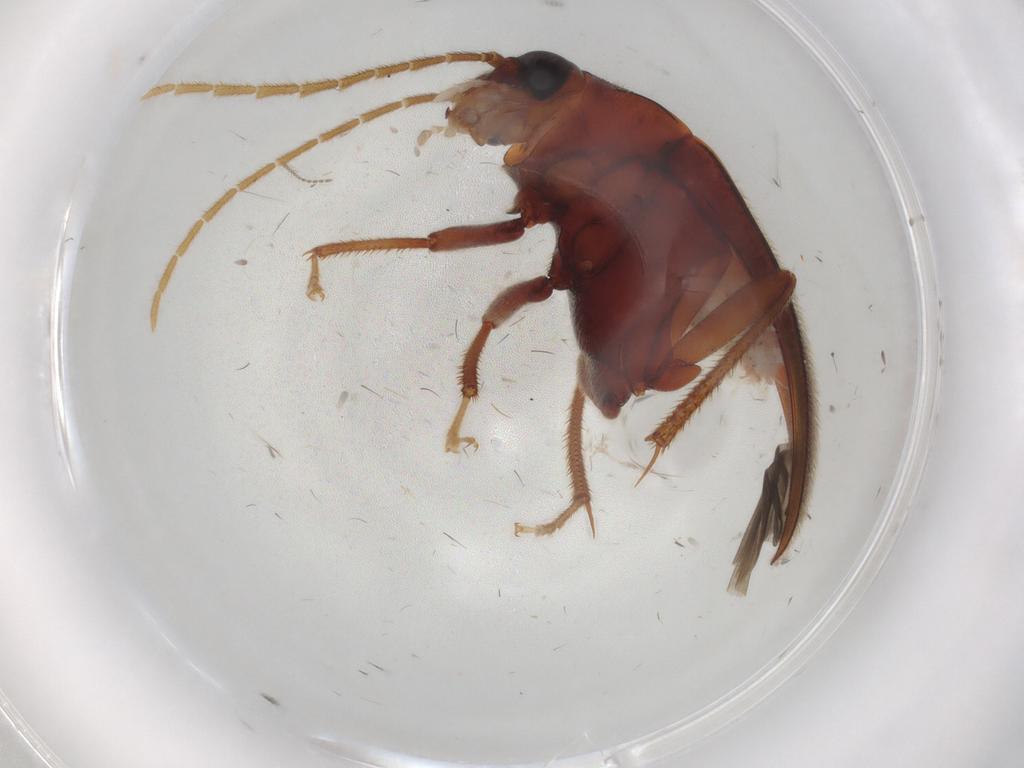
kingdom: Animalia
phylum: Arthropoda
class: Insecta
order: Coleoptera
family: Ptilodactylidae
